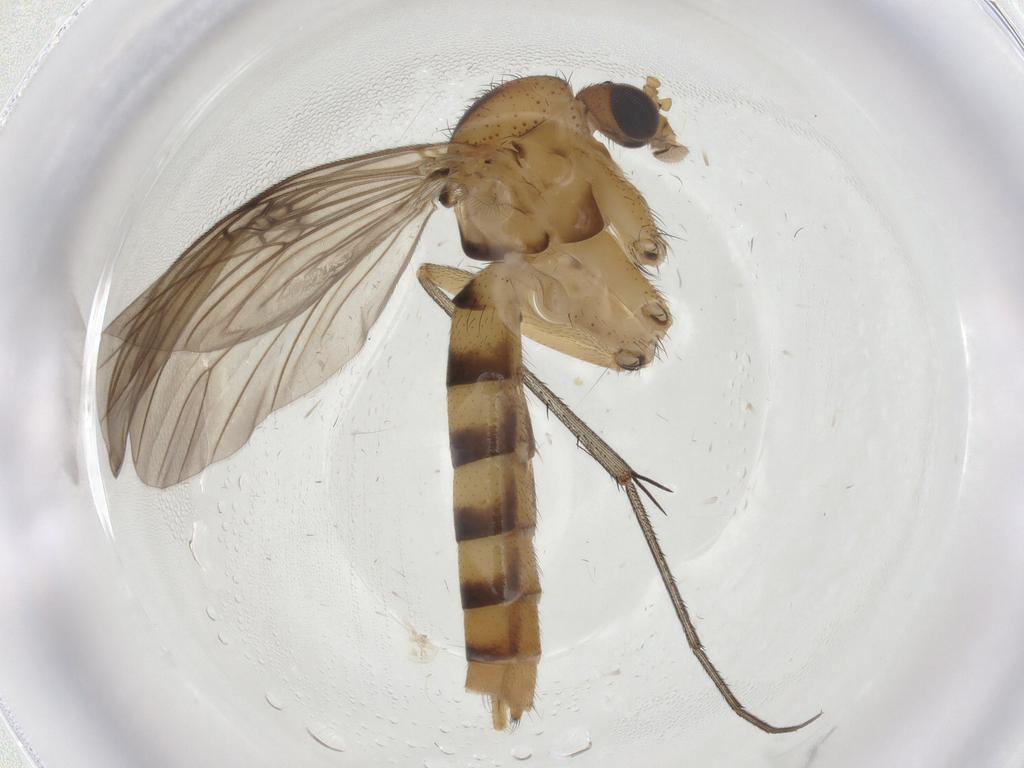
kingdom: Animalia
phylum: Arthropoda
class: Insecta
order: Diptera
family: Mycetophilidae
